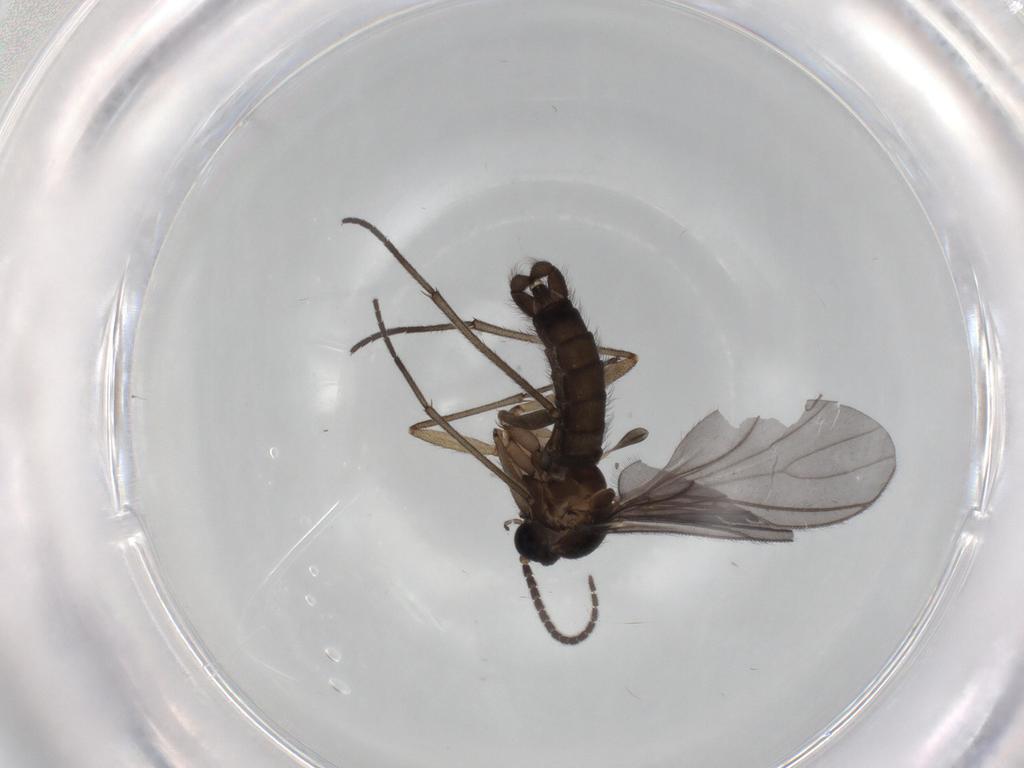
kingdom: Animalia
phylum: Arthropoda
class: Insecta
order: Diptera
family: Sciaridae
